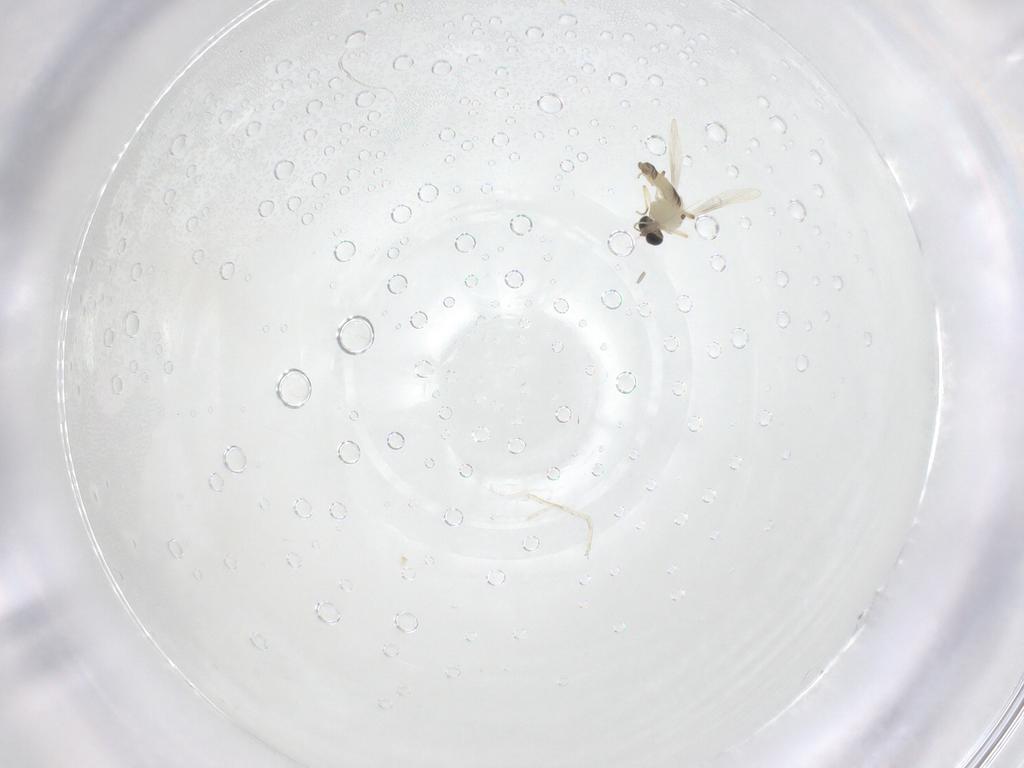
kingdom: Animalia
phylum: Arthropoda
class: Insecta
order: Diptera
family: Chironomidae
